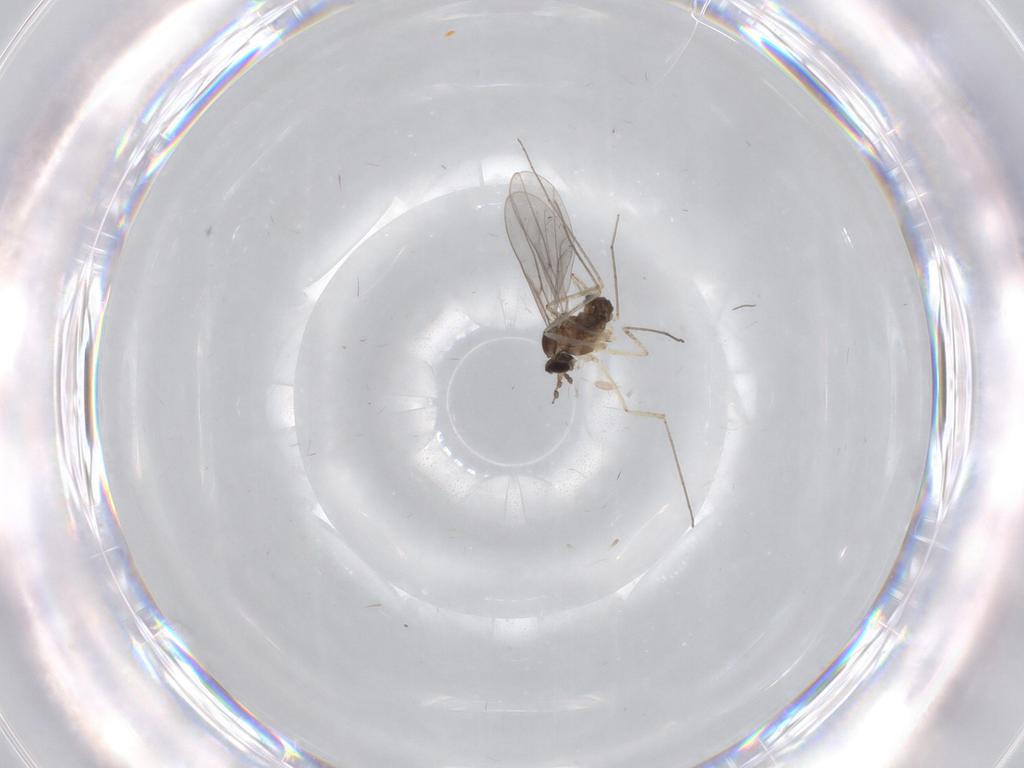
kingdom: Animalia
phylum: Arthropoda
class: Insecta
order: Diptera
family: Cecidomyiidae
